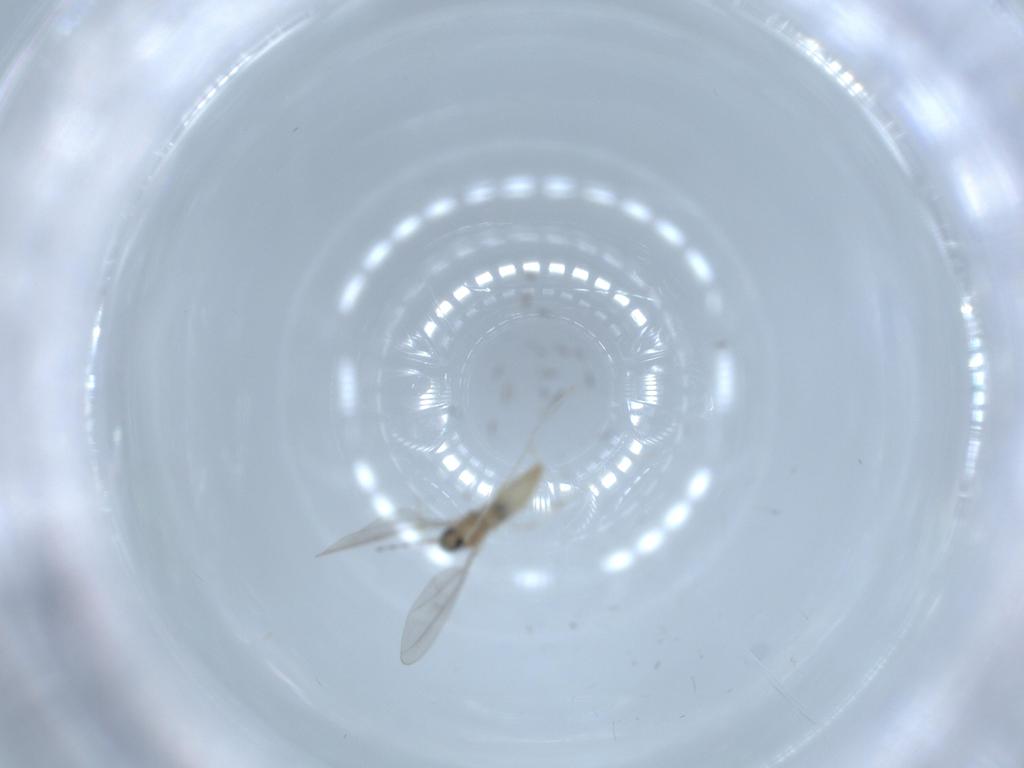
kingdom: Animalia
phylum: Arthropoda
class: Insecta
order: Diptera
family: Cecidomyiidae
